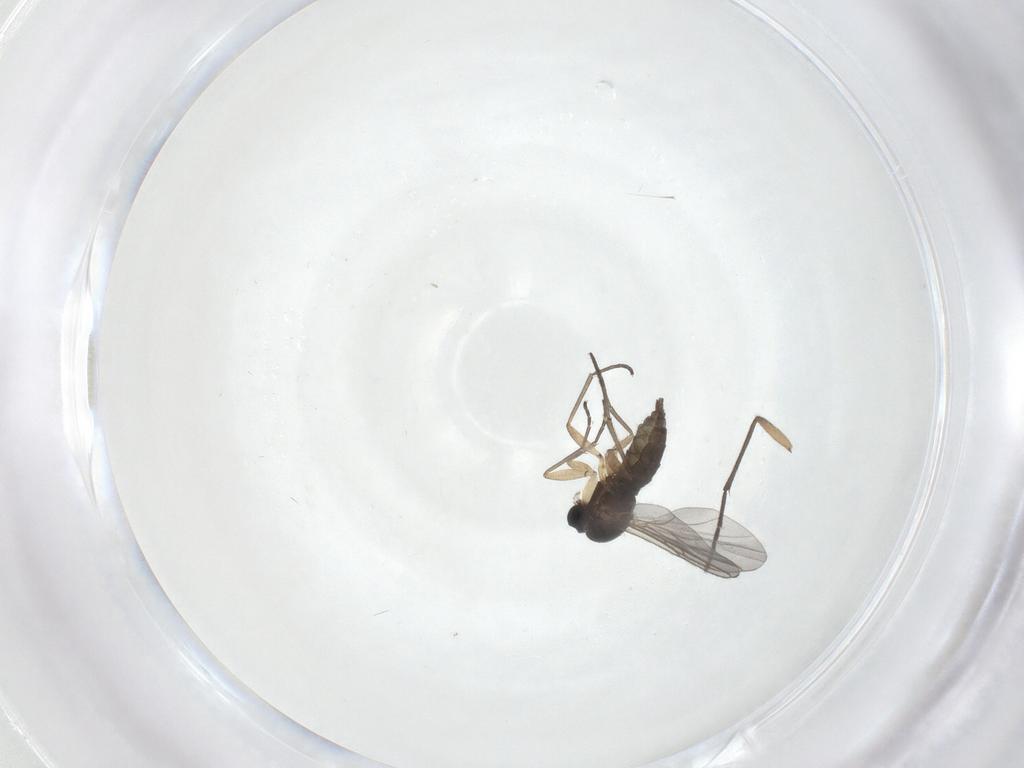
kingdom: Animalia
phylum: Arthropoda
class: Insecta
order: Diptera
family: Sciaridae
